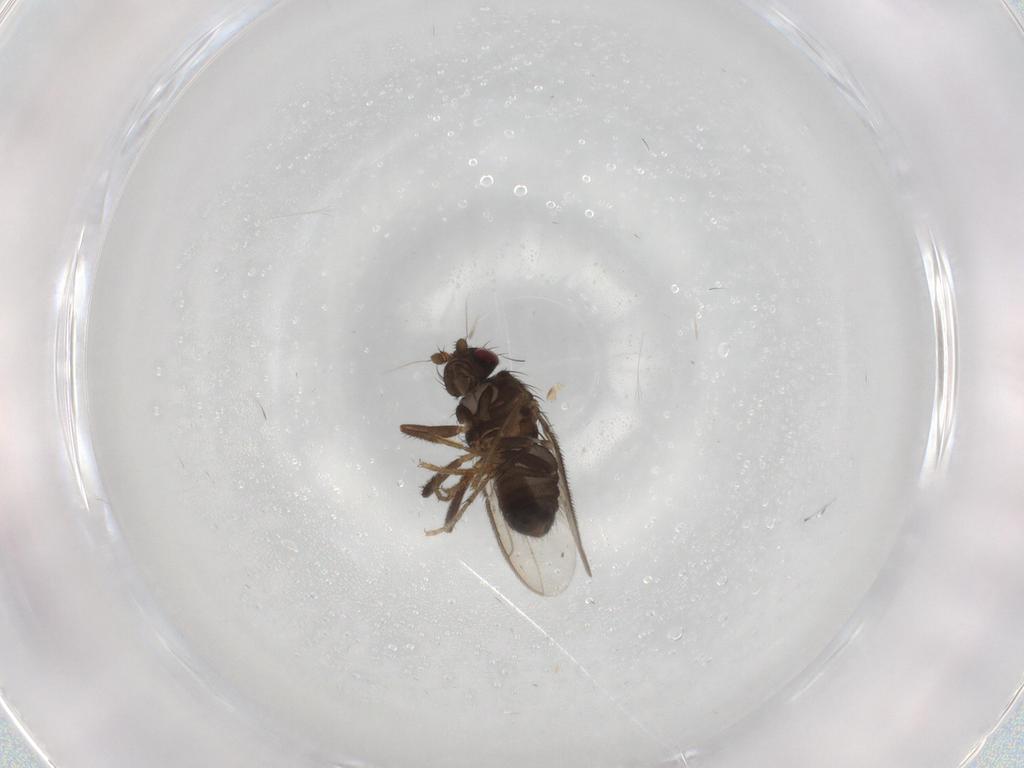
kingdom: Animalia
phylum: Arthropoda
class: Insecta
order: Diptera
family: Sphaeroceridae
